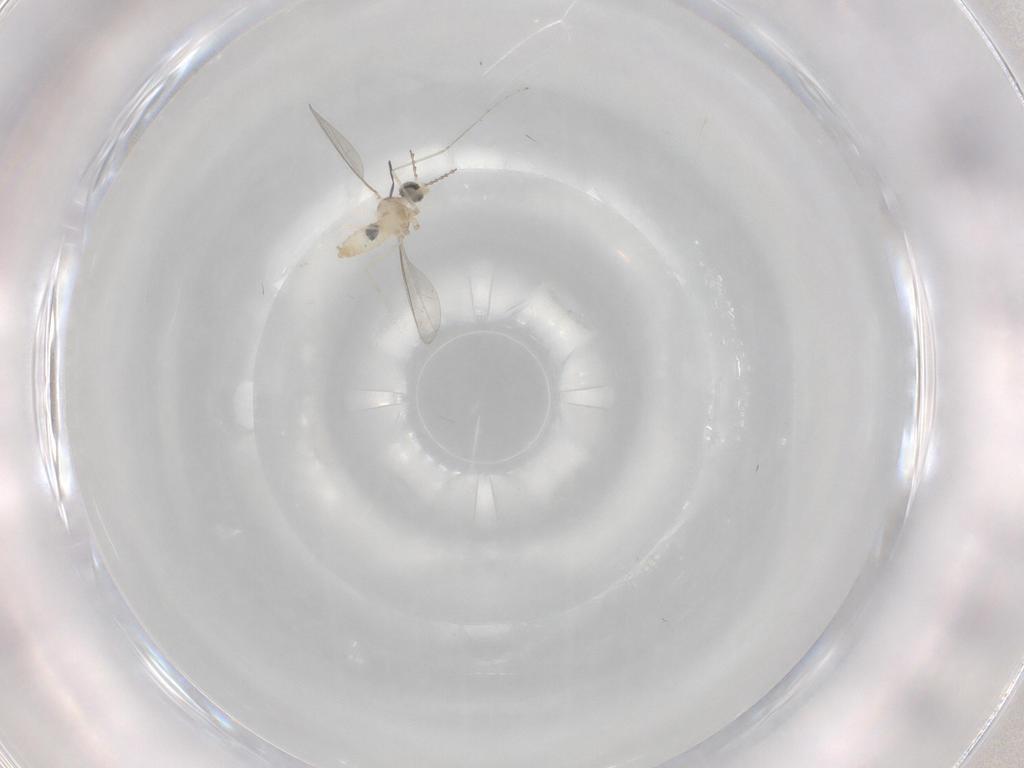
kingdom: Animalia
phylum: Arthropoda
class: Insecta
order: Diptera
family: Cecidomyiidae
